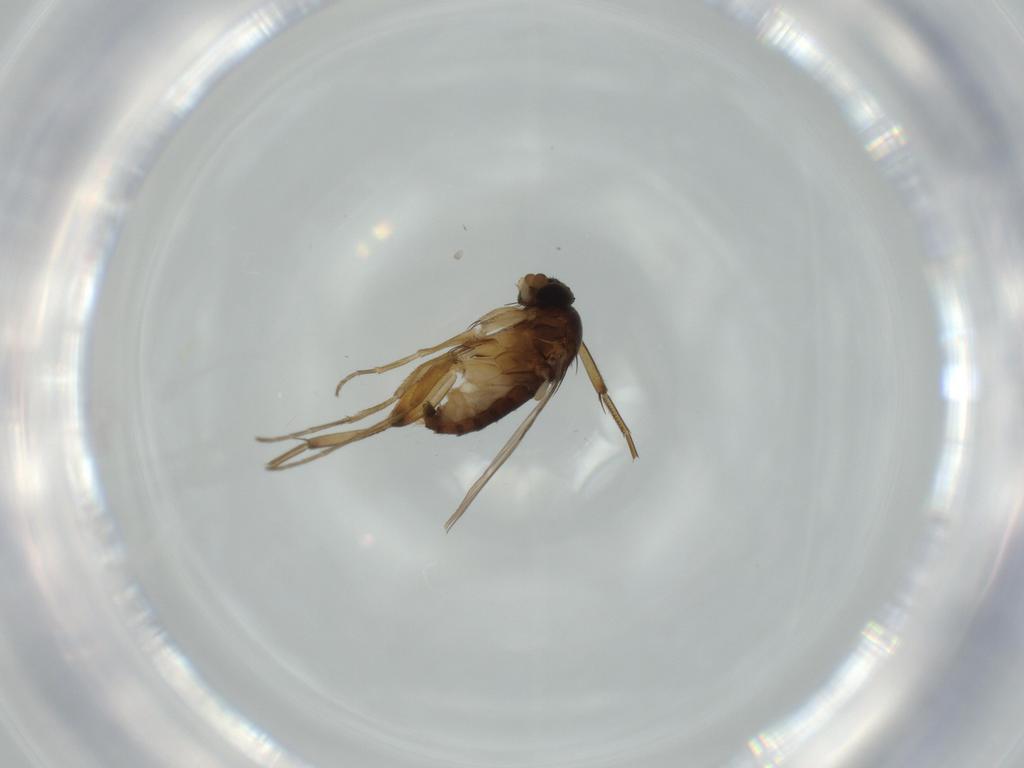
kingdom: Animalia
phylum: Arthropoda
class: Insecta
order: Diptera
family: Phoridae
